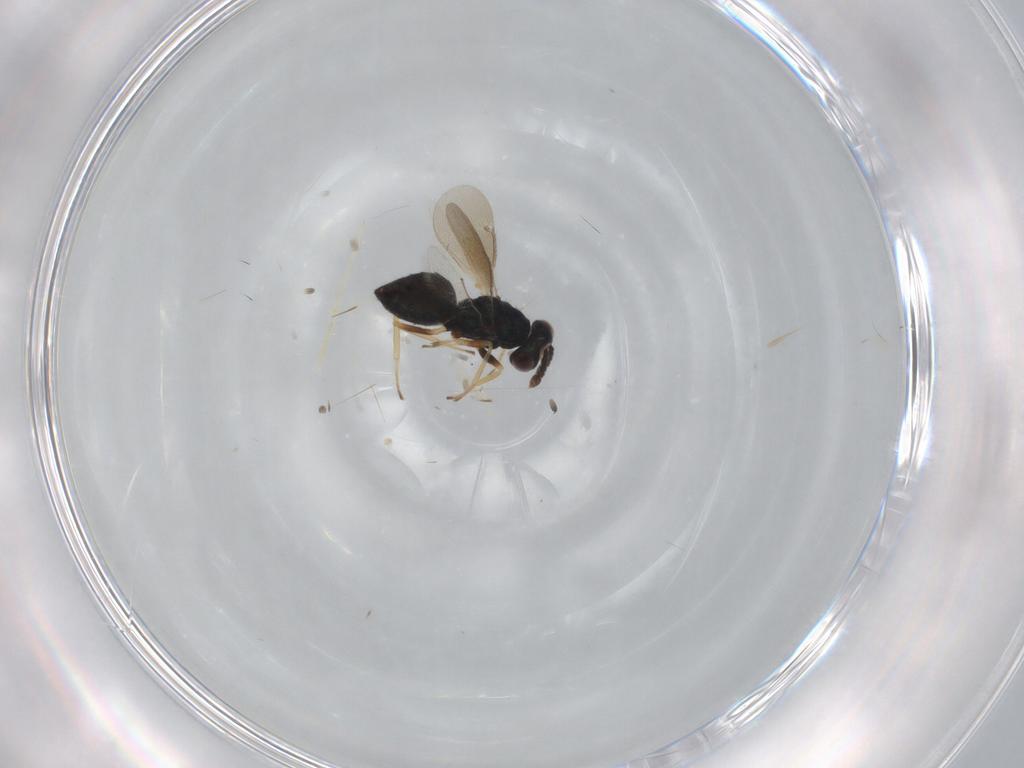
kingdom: Animalia
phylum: Arthropoda
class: Insecta
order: Hymenoptera
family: Eulophidae
